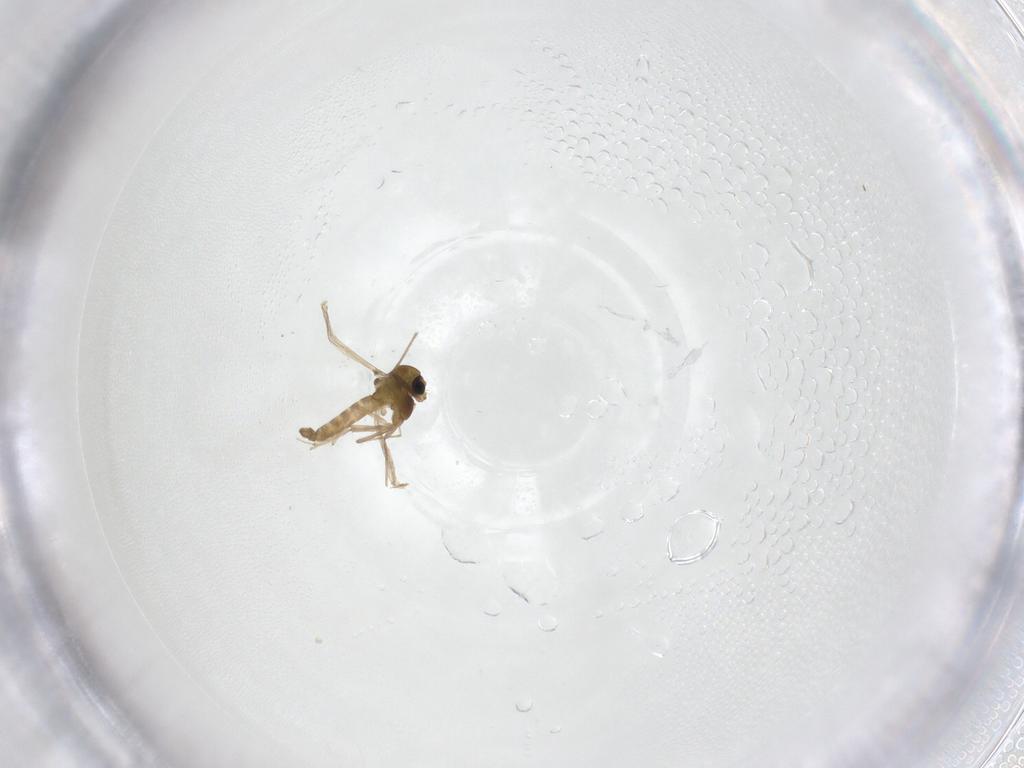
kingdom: Animalia
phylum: Arthropoda
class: Insecta
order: Diptera
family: Chironomidae
